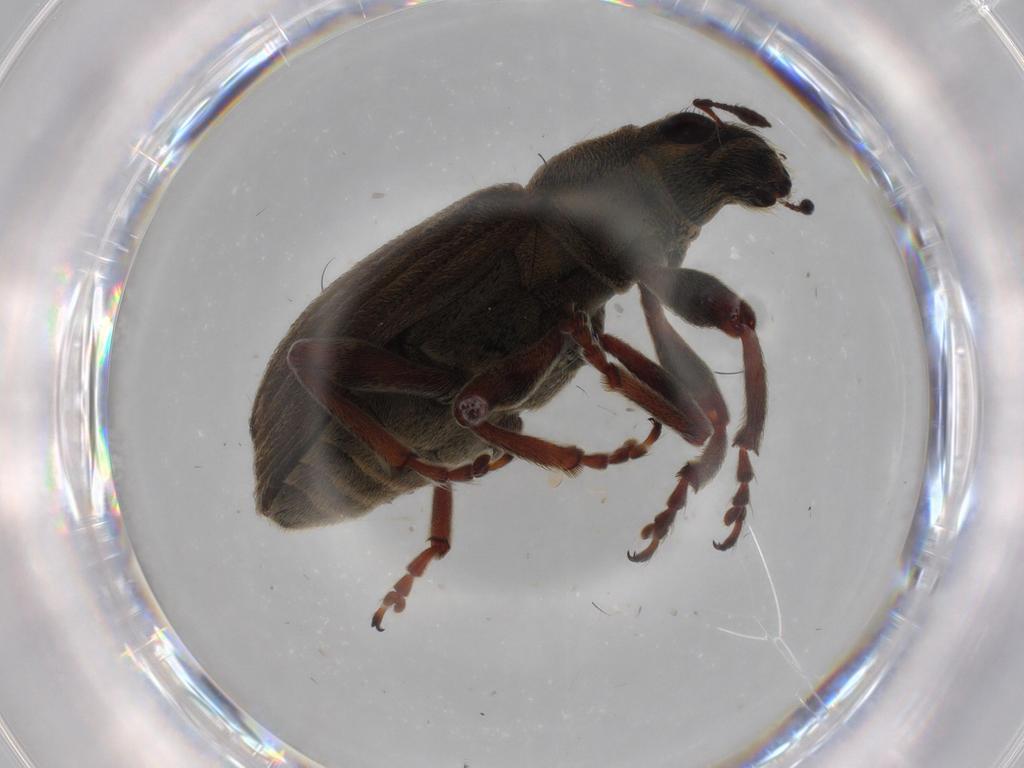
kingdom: Animalia
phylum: Arthropoda
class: Insecta
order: Coleoptera
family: Curculionidae
